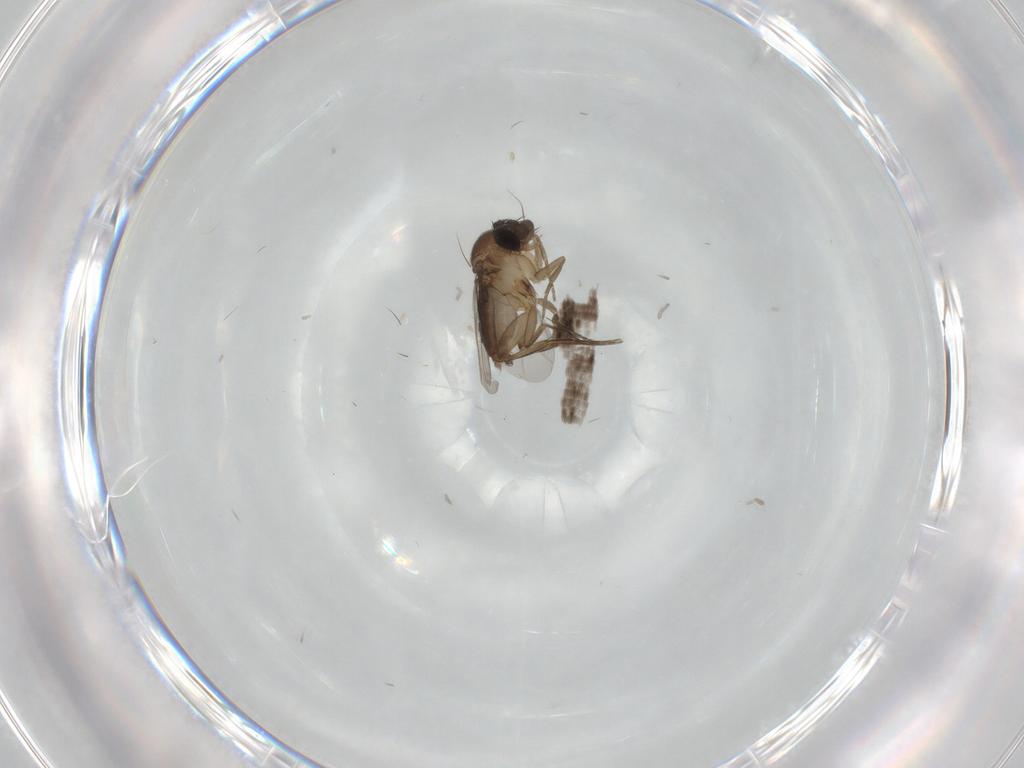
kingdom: Animalia
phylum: Arthropoda
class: Insecta
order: Diptera
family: Phoridae
